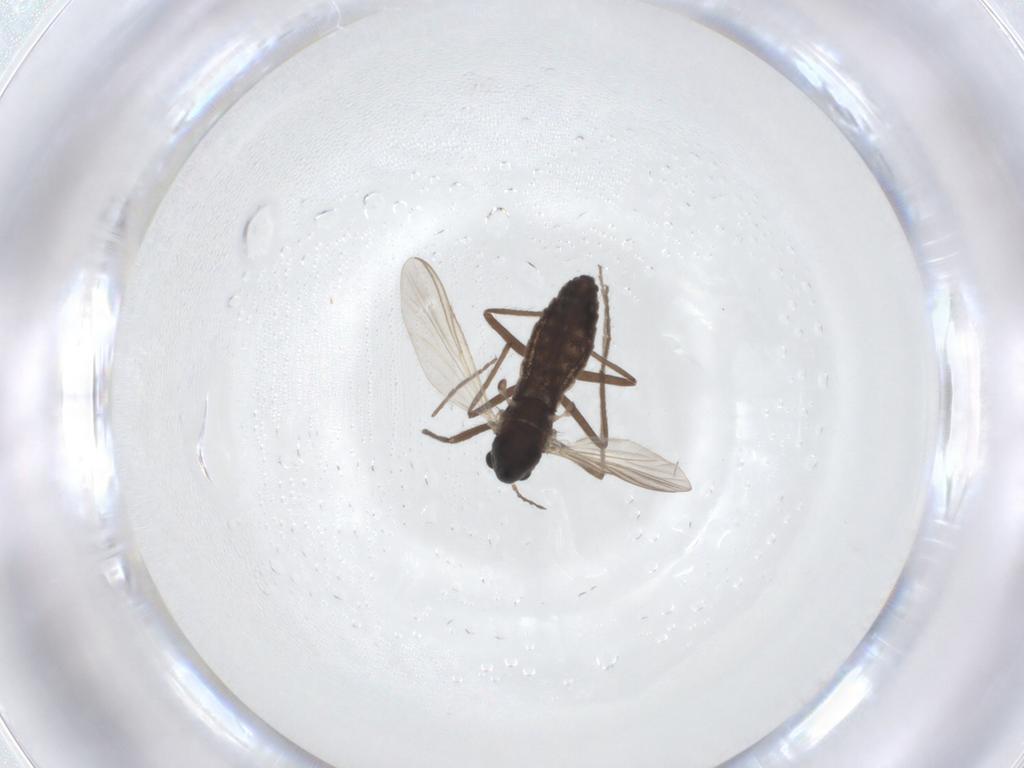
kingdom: Animalia
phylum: Arthropoda
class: Insecta
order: Diptera
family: Chironomidae
